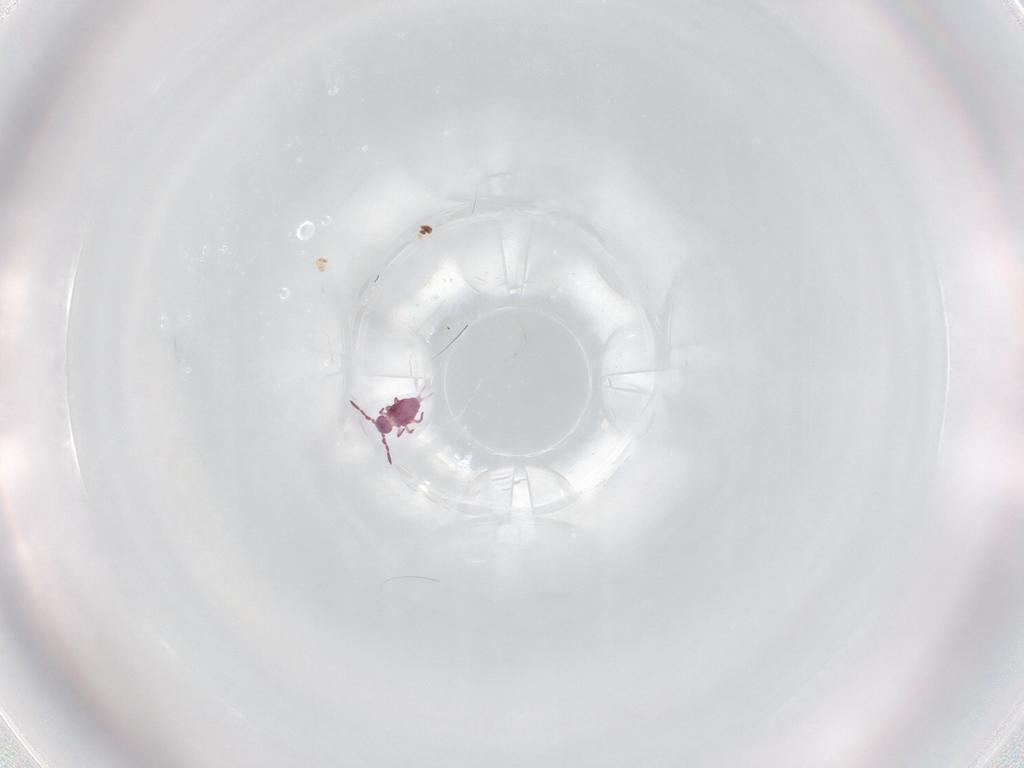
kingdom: Animalia
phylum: Arthropoda
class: Collembola
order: Symphypleona
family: Sminthurididae
